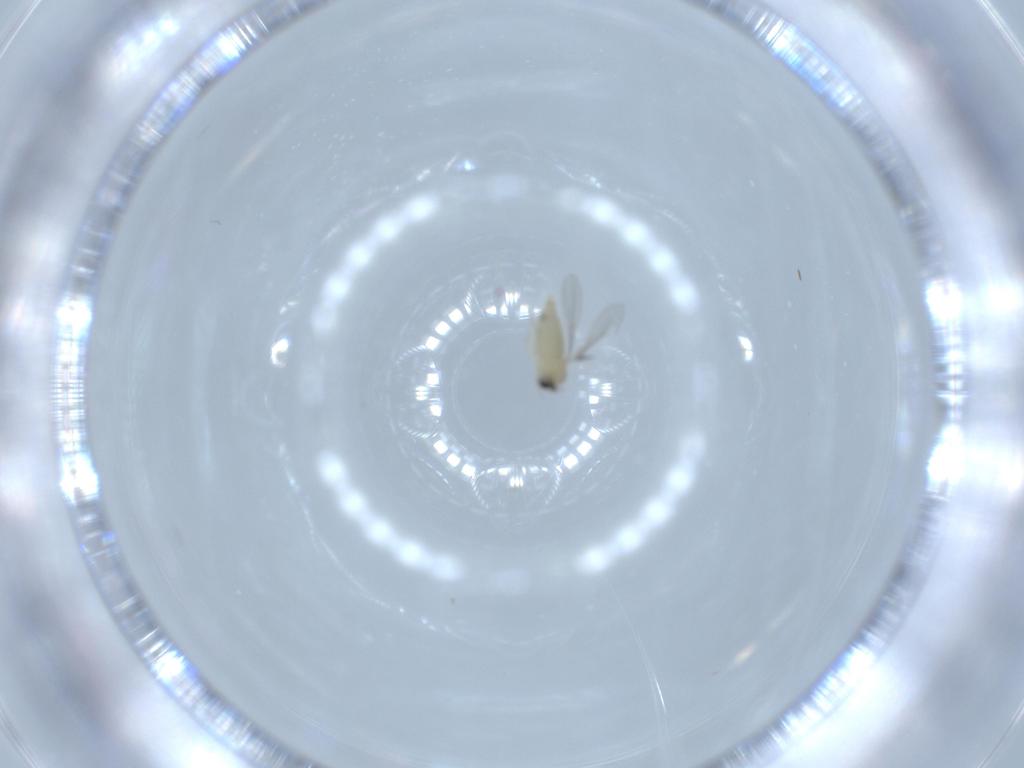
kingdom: Animalia
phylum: Arthropoda
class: Insecta
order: Diptera
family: Cecidomyiidae
